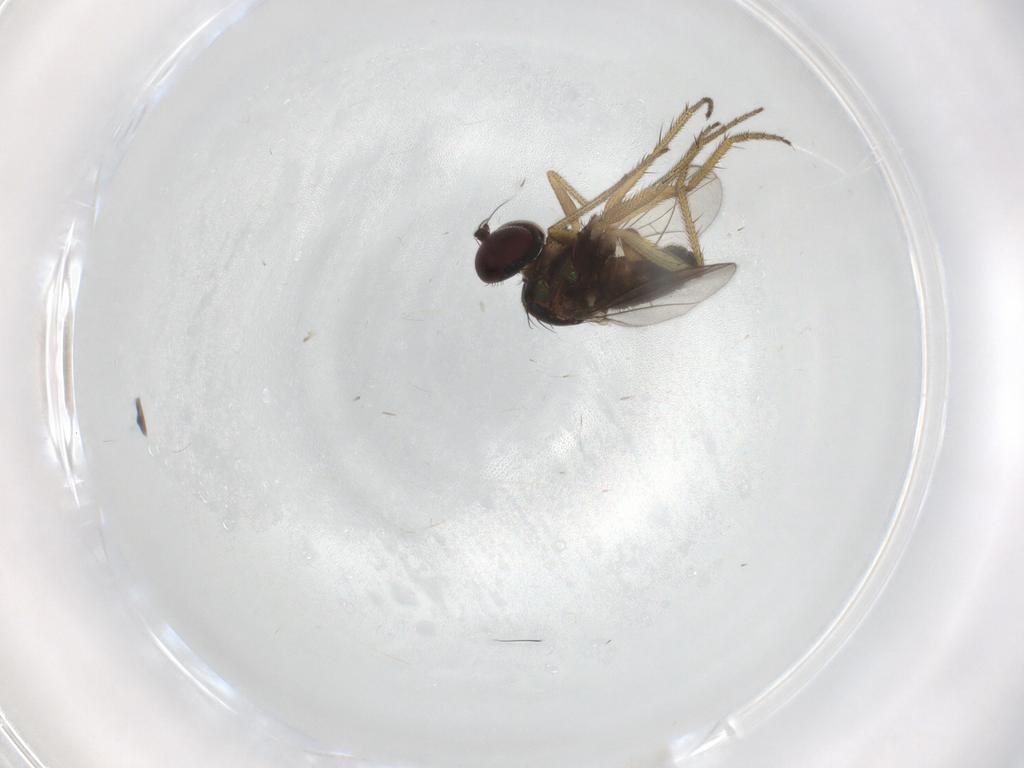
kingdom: Animalia
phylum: Arthropoda
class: Insecta
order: Diptera
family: Richardiidae
